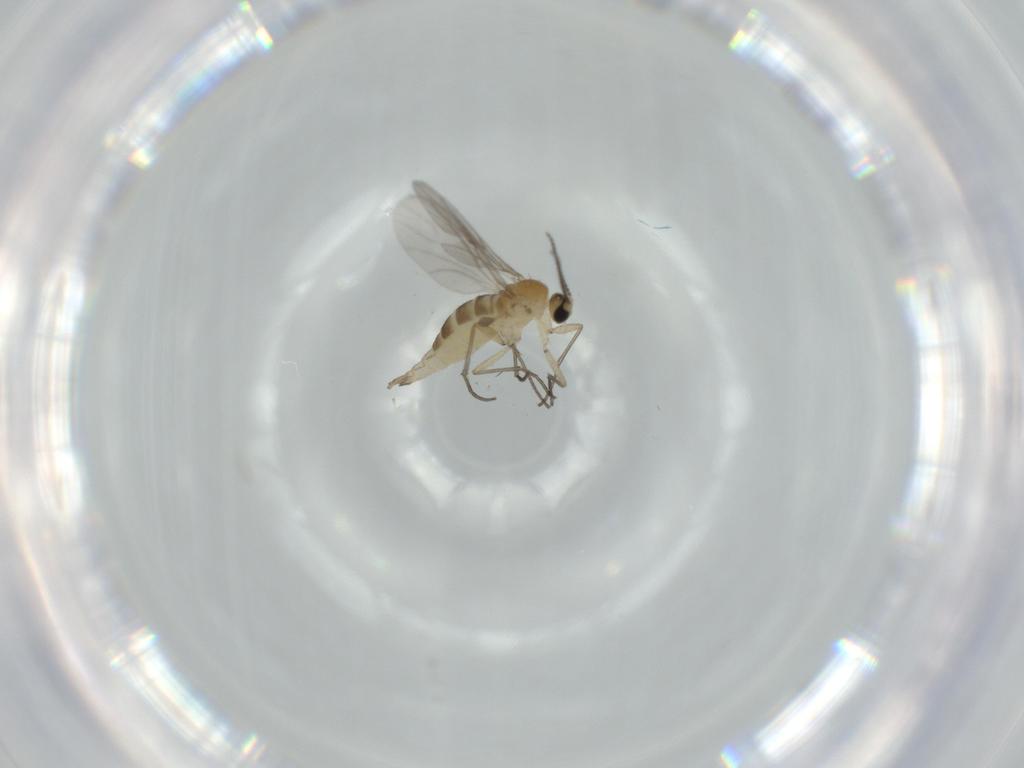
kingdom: Animalia
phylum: Arthropoda
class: Insecta
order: Diptera
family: Sciaridae
